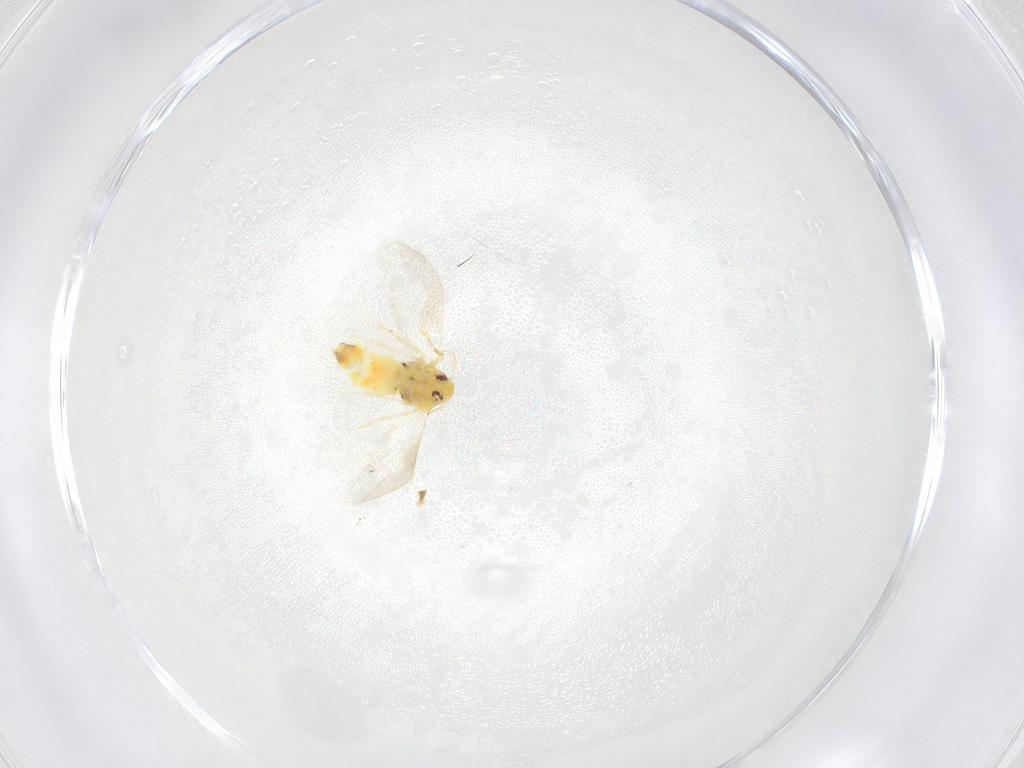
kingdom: Animalia
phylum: Arthropoda
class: Insecta
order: Hemiptera
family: Aleyrodidae
